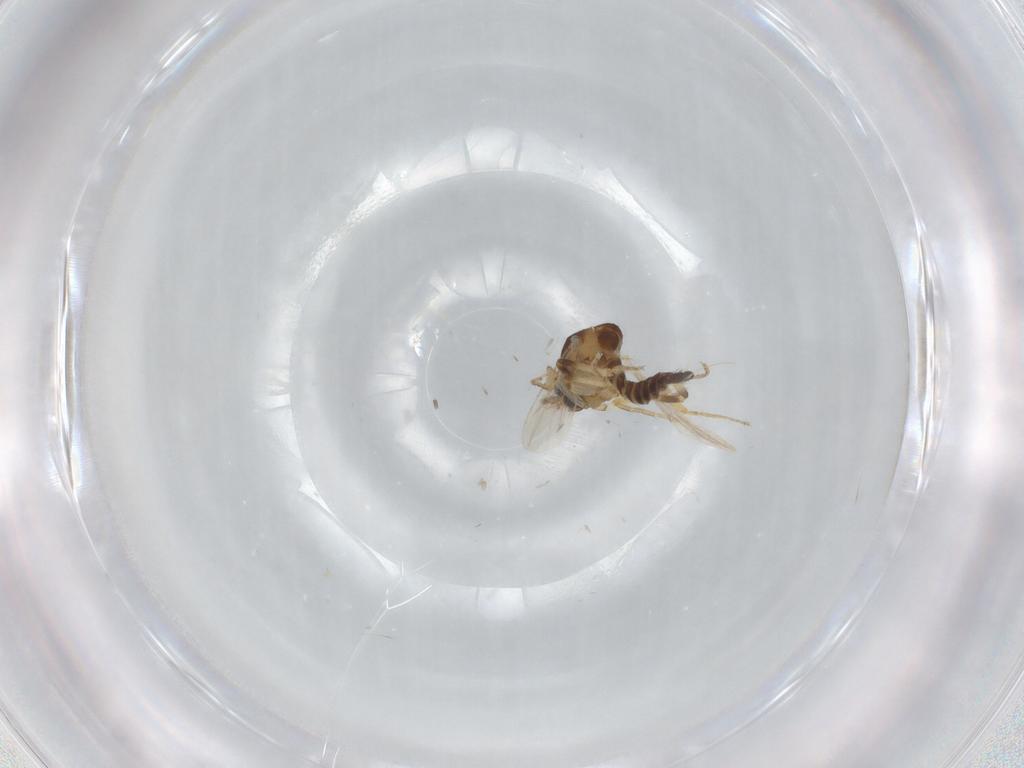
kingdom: Animalia
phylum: Arthropoda
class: Insecta
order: Diptera
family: Ceratopogonidae
